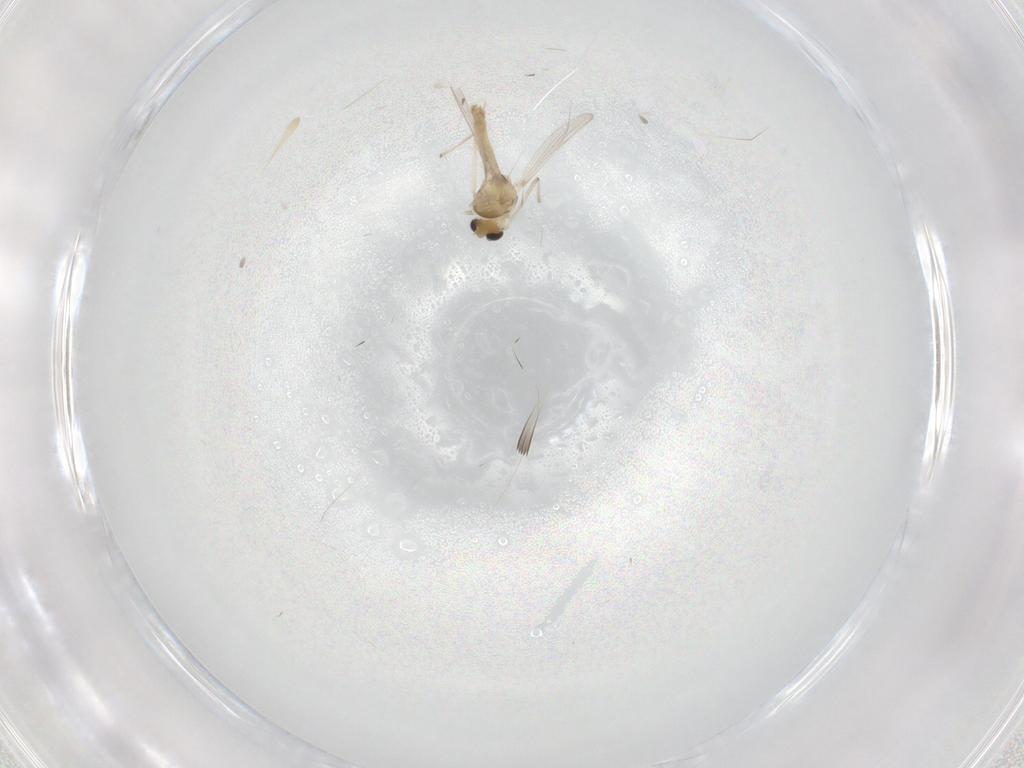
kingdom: Animalia
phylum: Arthropoda
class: Insecta
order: Diptera
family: Chironomidae
